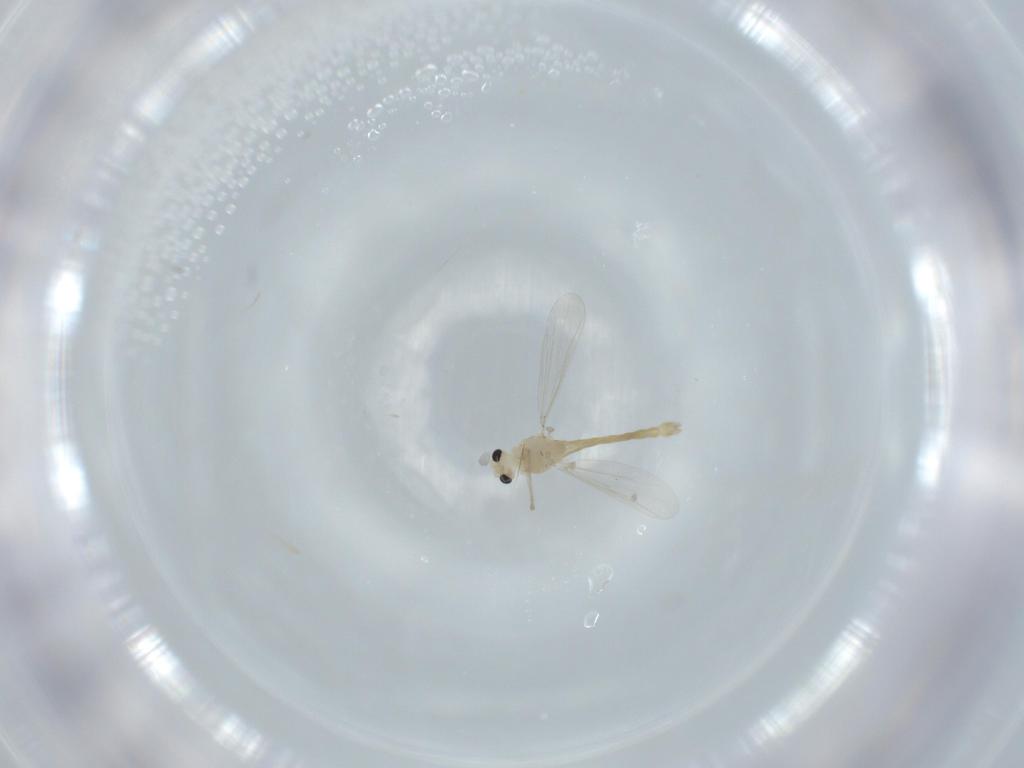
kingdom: Animalia
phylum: Arthropoda
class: Insecta
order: Diptera
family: Chironomidae
